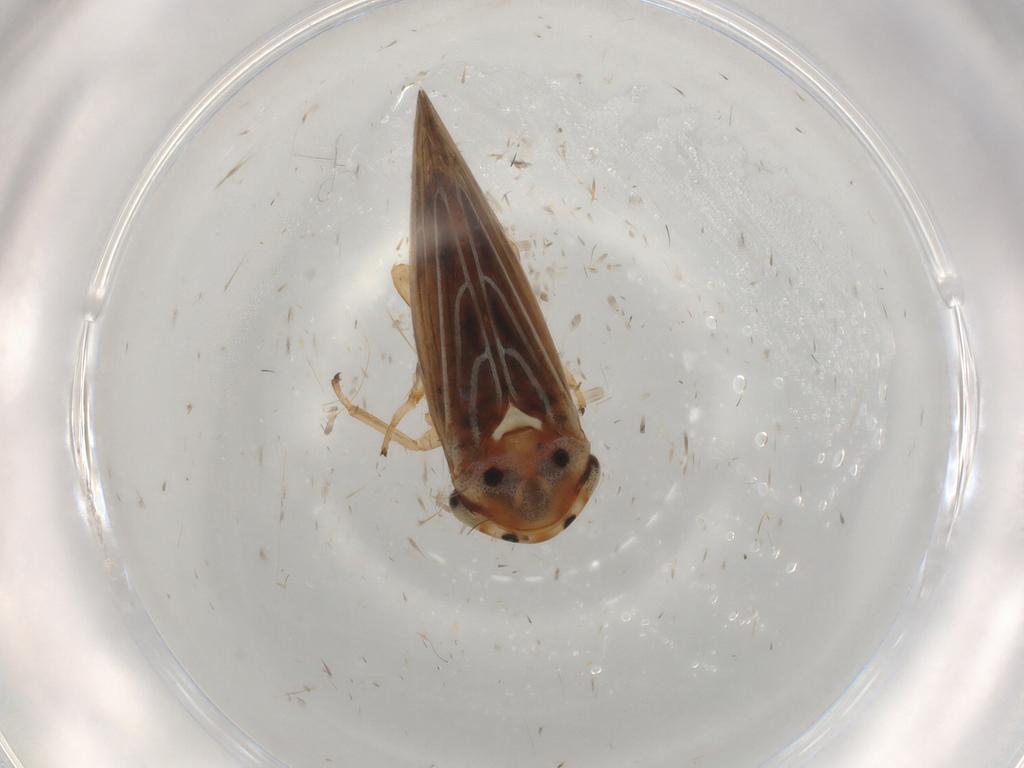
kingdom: Animalia
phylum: Arthropoda
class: Insecta
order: Hemiptera
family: Cicadellidae
